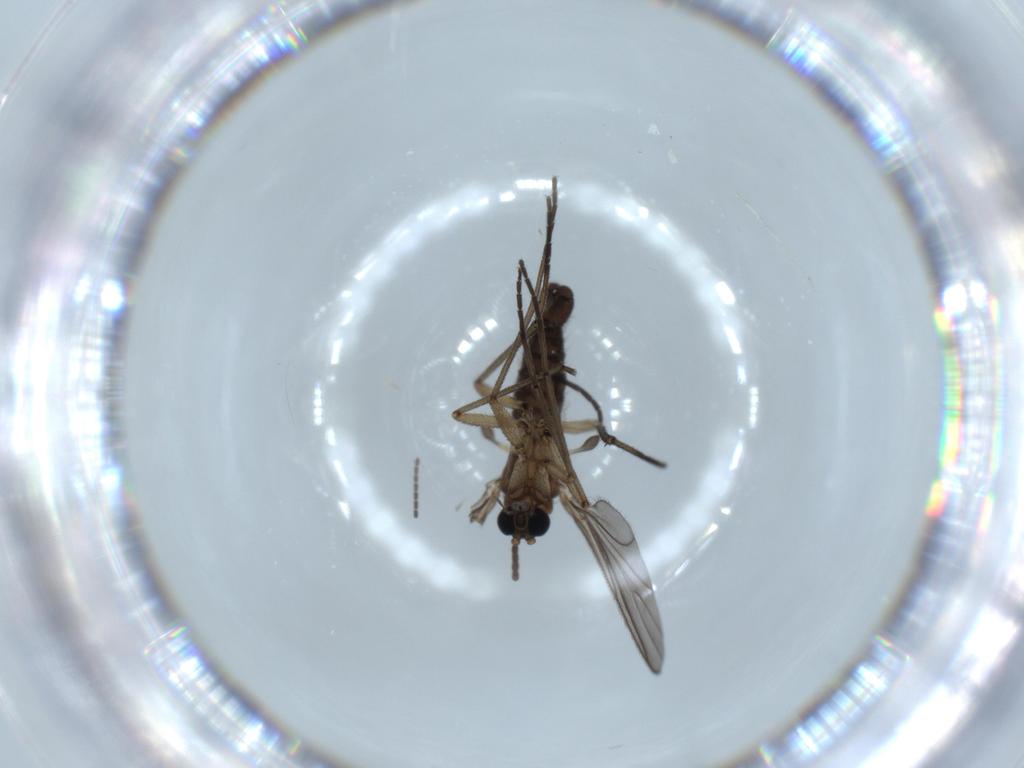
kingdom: Animalia
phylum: Arthropoda
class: Insecta
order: Diptera
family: Sciaridae
